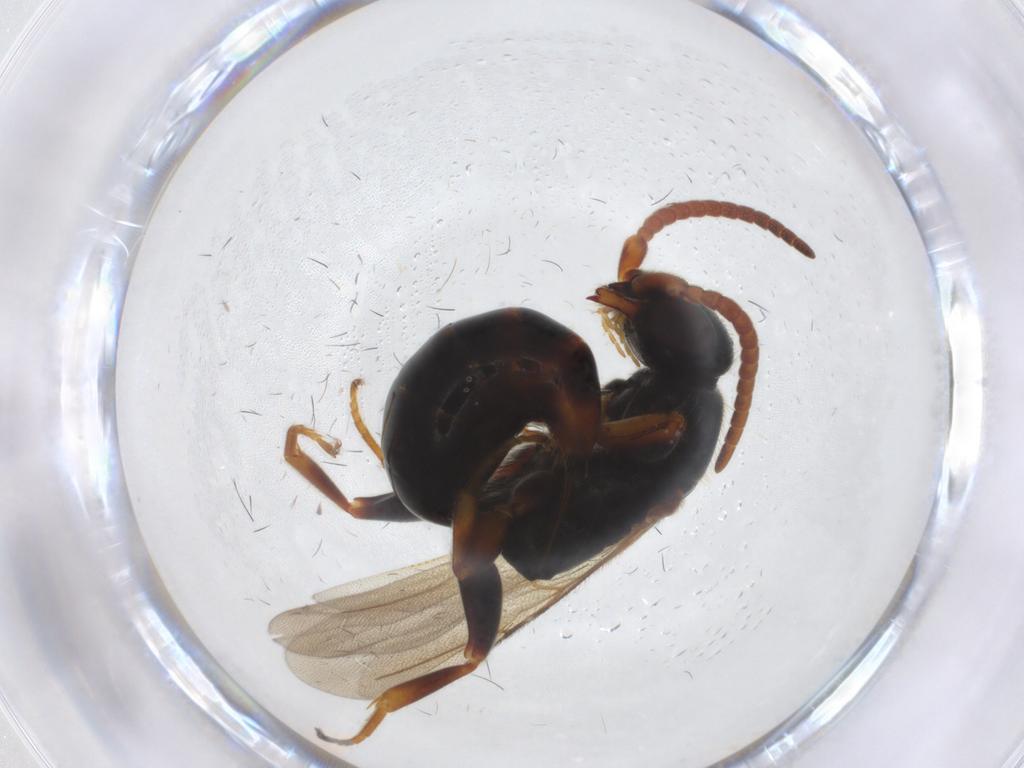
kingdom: Animalia
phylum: Arthropoda
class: Insecta
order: Hymenoptera
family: Bethylidae
